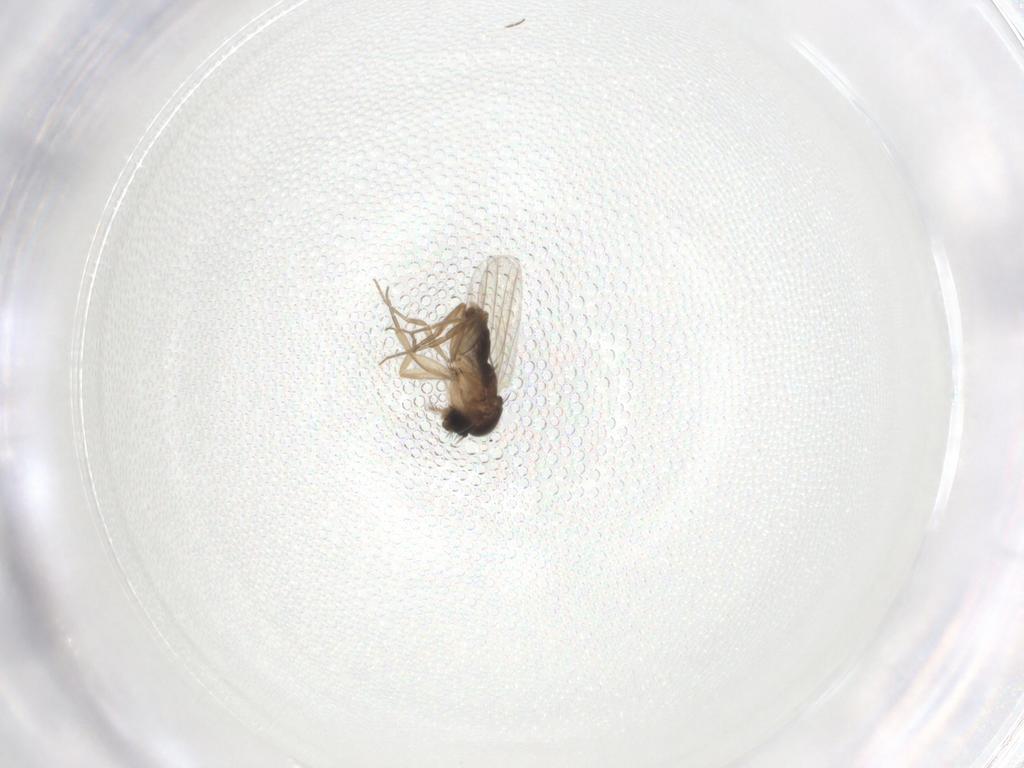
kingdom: Animalia
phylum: Arthropoda
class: Insecta
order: Diptera
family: Phoridae
